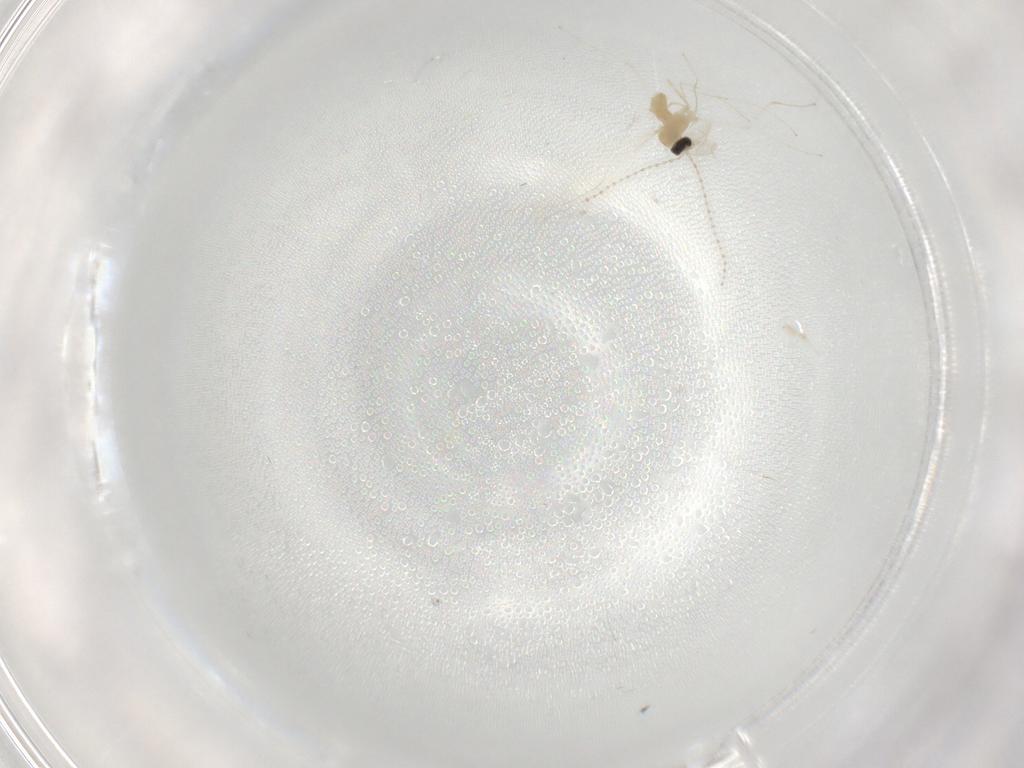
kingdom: Animalia
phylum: Arthropoda
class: Insecta
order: Diptera
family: Cecidomyiidae
